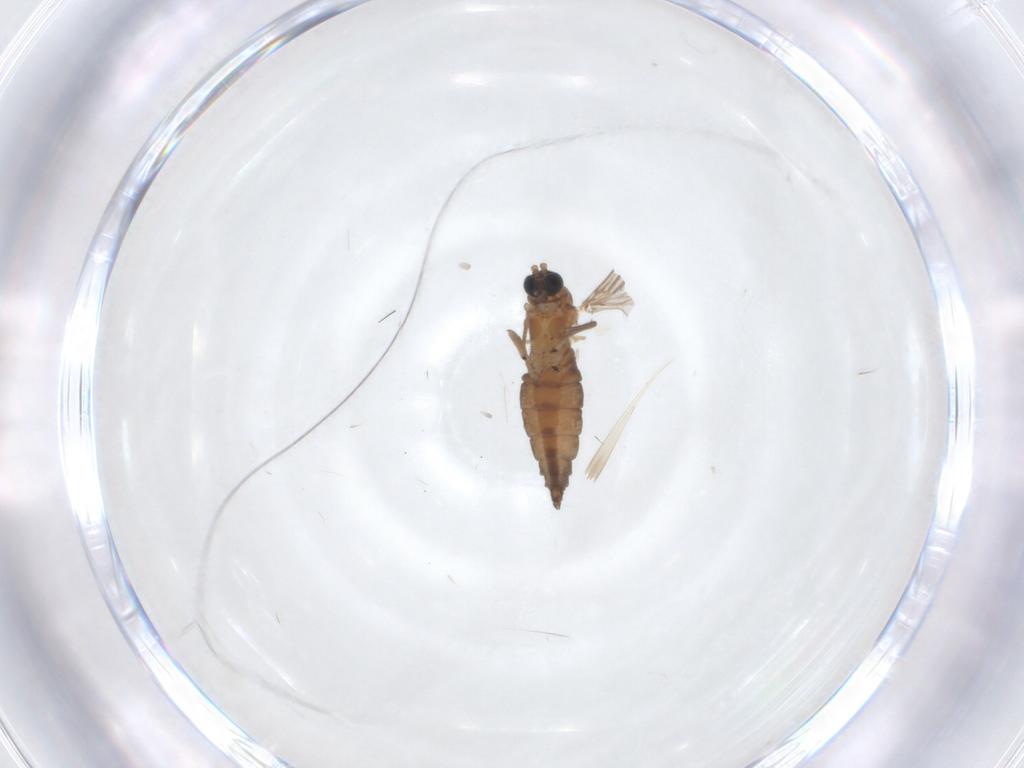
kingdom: Animalia
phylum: Arthropoda
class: Insecta
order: Diptera
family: Sciaridae
